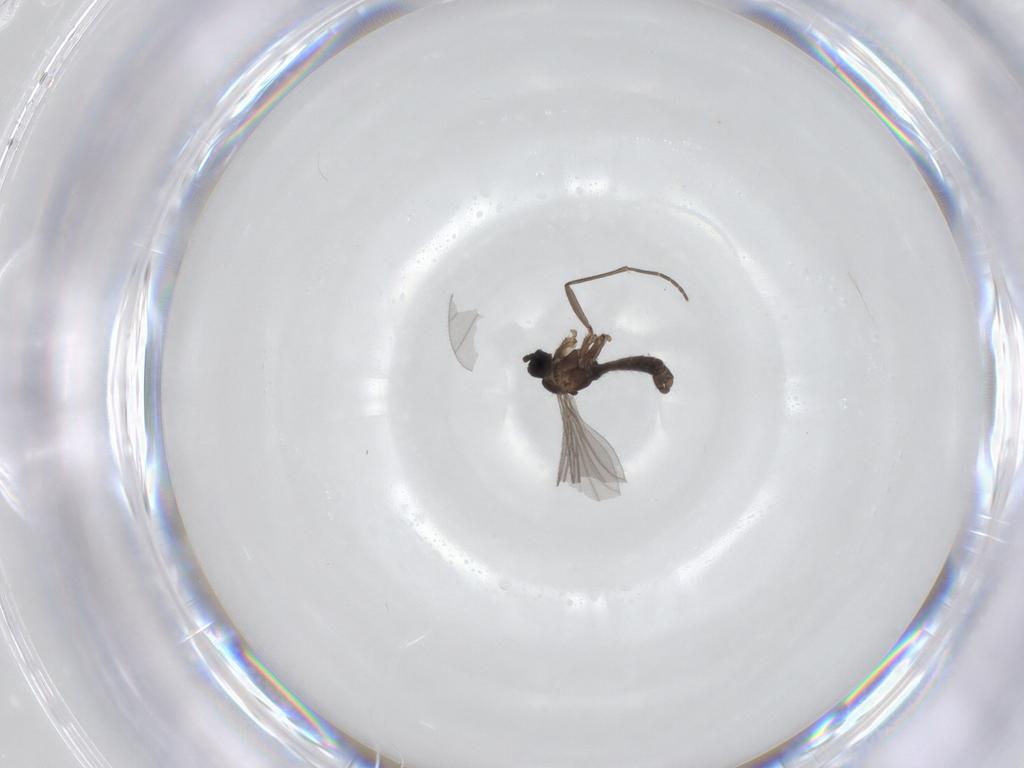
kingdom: Animalia
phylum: Arthropoda
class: Insecta
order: Diptera
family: Sciaridae
